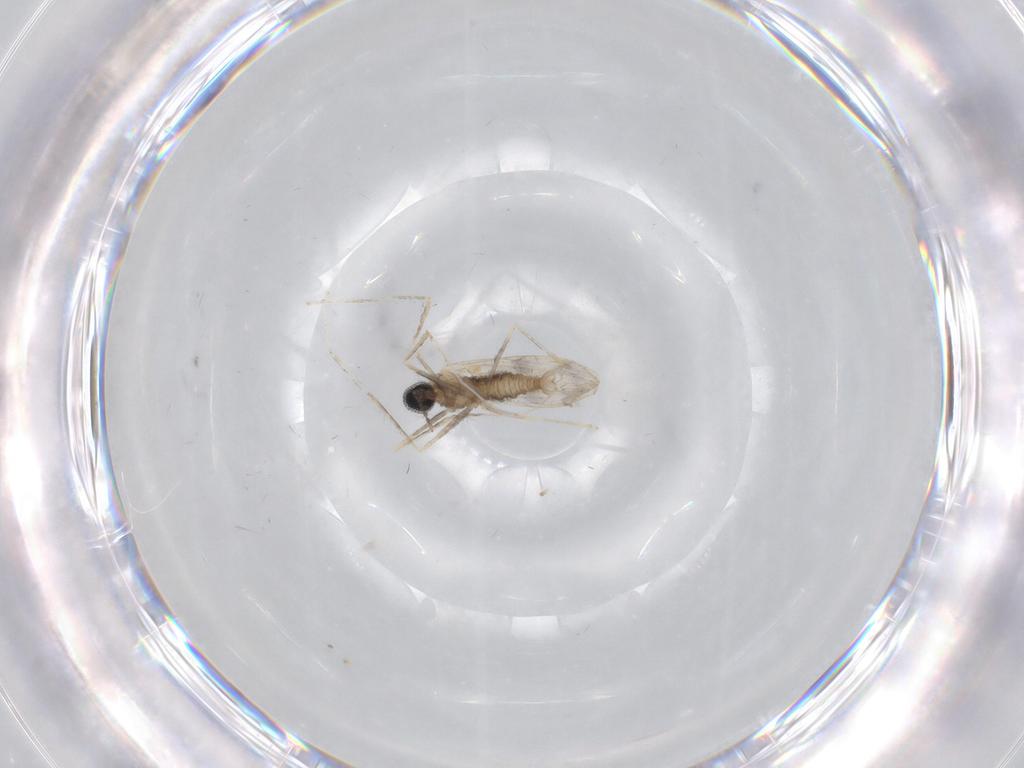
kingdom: Animalia
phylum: Arthropoda
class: Insecta
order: Diptera
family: Cecidomyiidae
